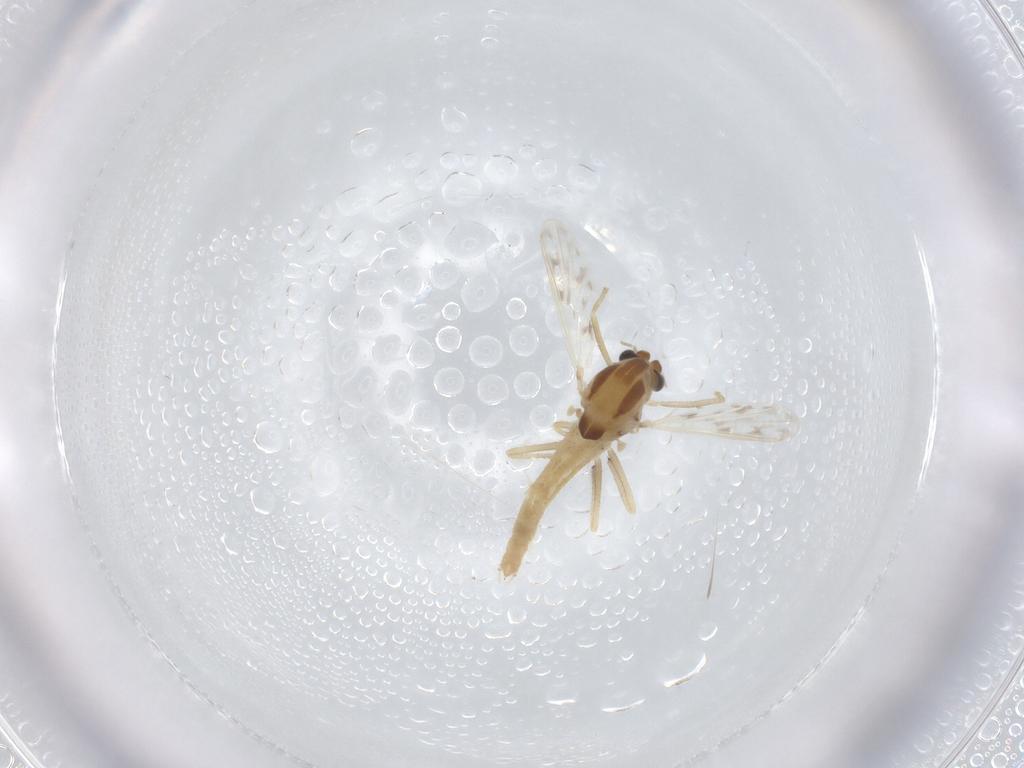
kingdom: Animalia
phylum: Arthropoda
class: Insecta
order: Diptera
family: Chironomidae
